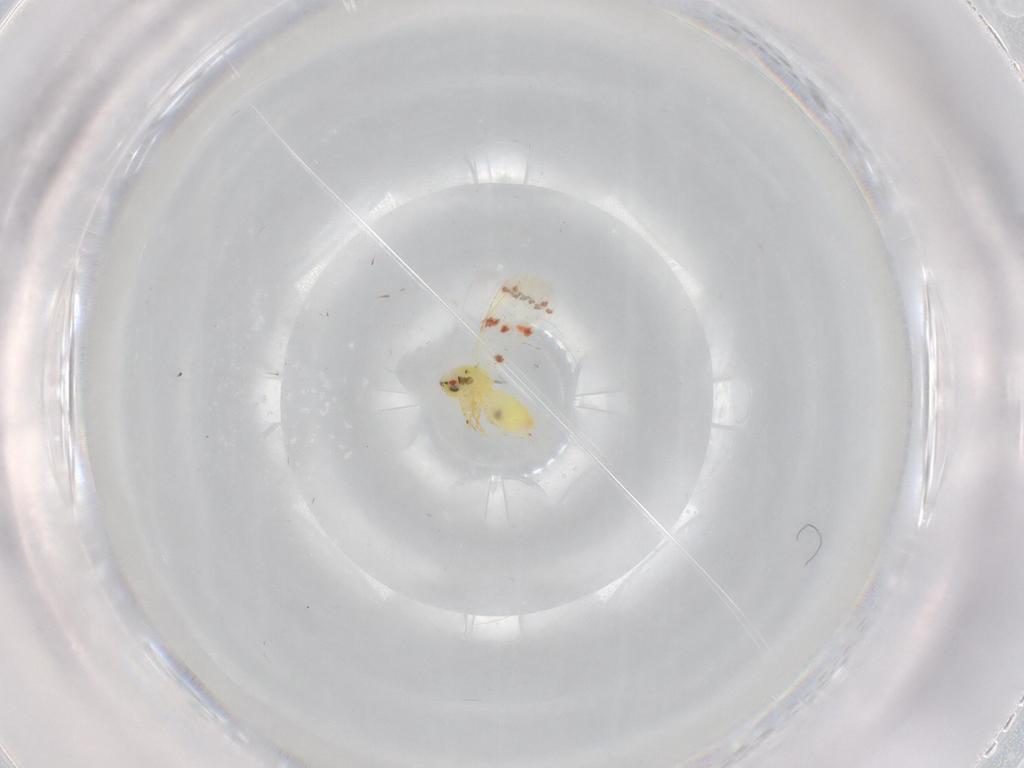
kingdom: Animalia
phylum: Arthropoda
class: Insecta
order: Hemiptera
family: Aleyrodidae
